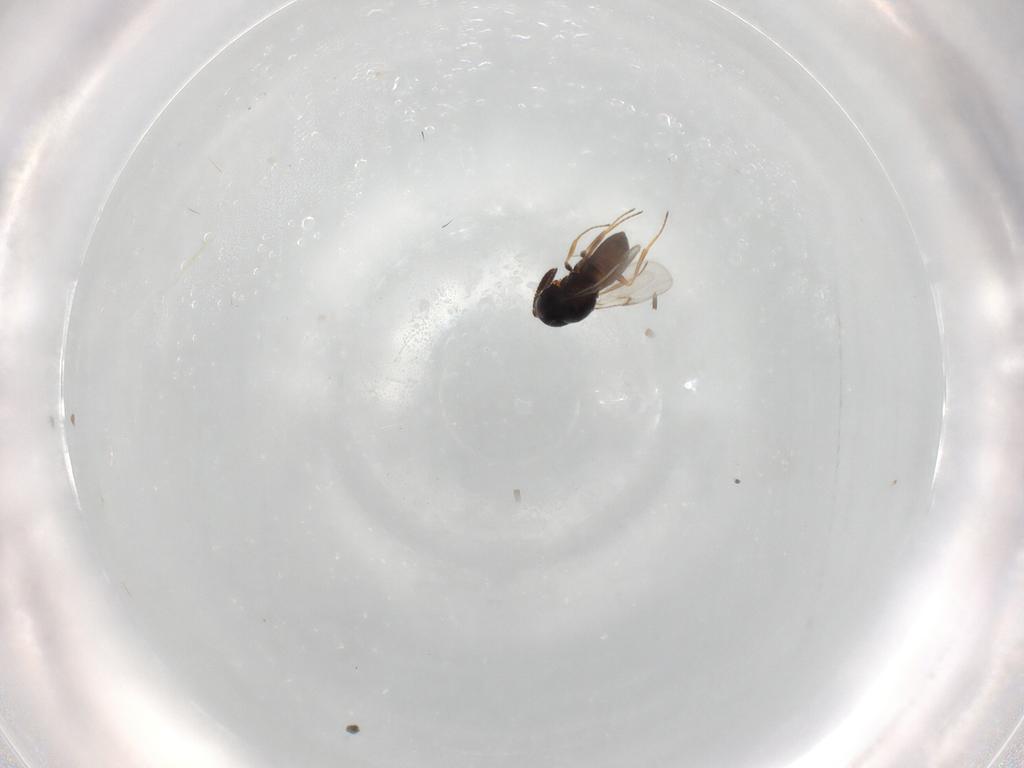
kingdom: Animalia
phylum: Arthropoda
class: Insecta
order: Hymenoptera
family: Scelionidae
